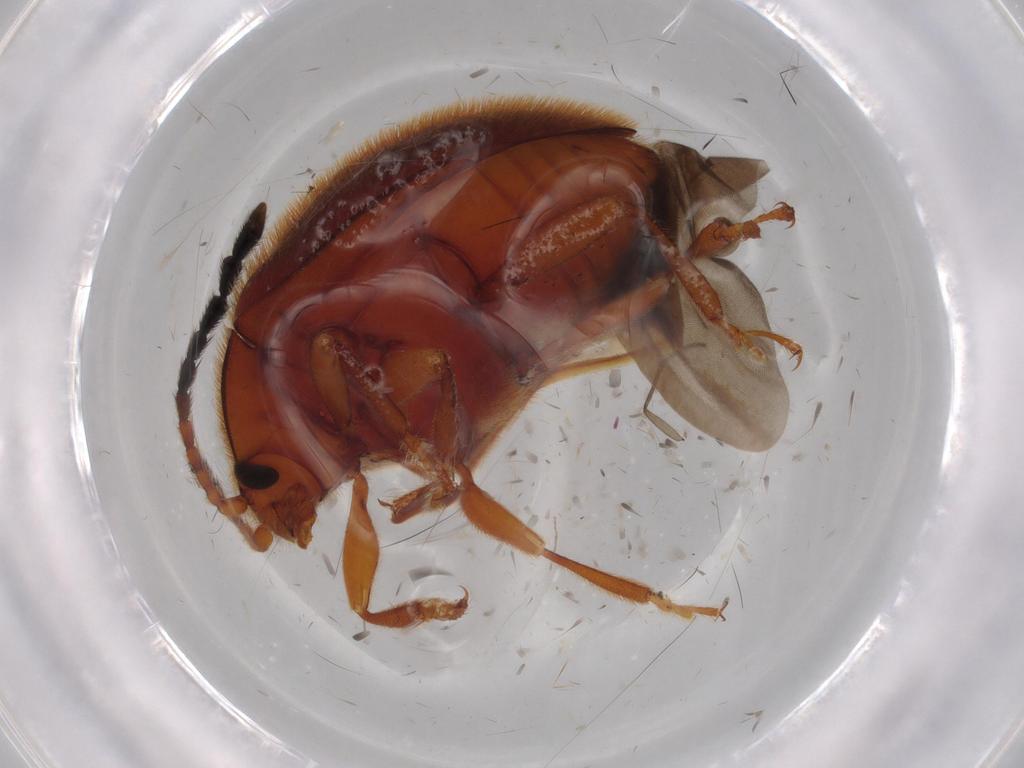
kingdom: Animalia
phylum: Arthropoda
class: Insecta
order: Coleoptera
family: Endomychidae
